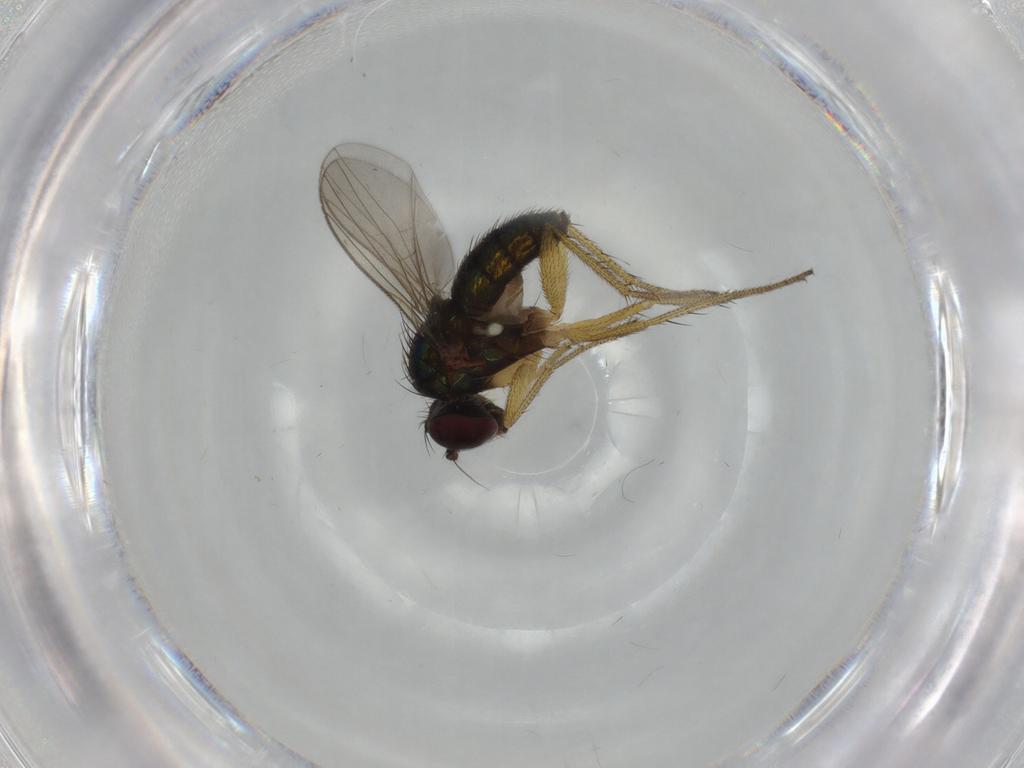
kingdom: Animalia
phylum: Arthropoda
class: Insecta
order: Diptera
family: Dolichopodidae
